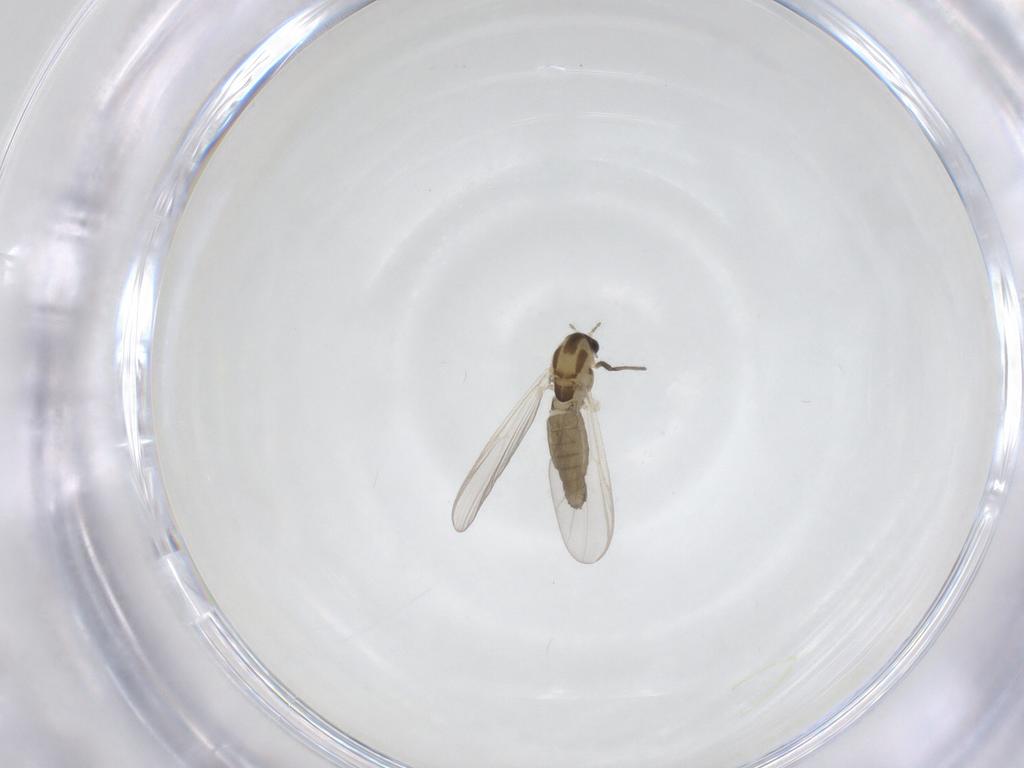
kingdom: Animalia
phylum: Arthropoda
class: Insecta
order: Diptera
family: Chironomidae
